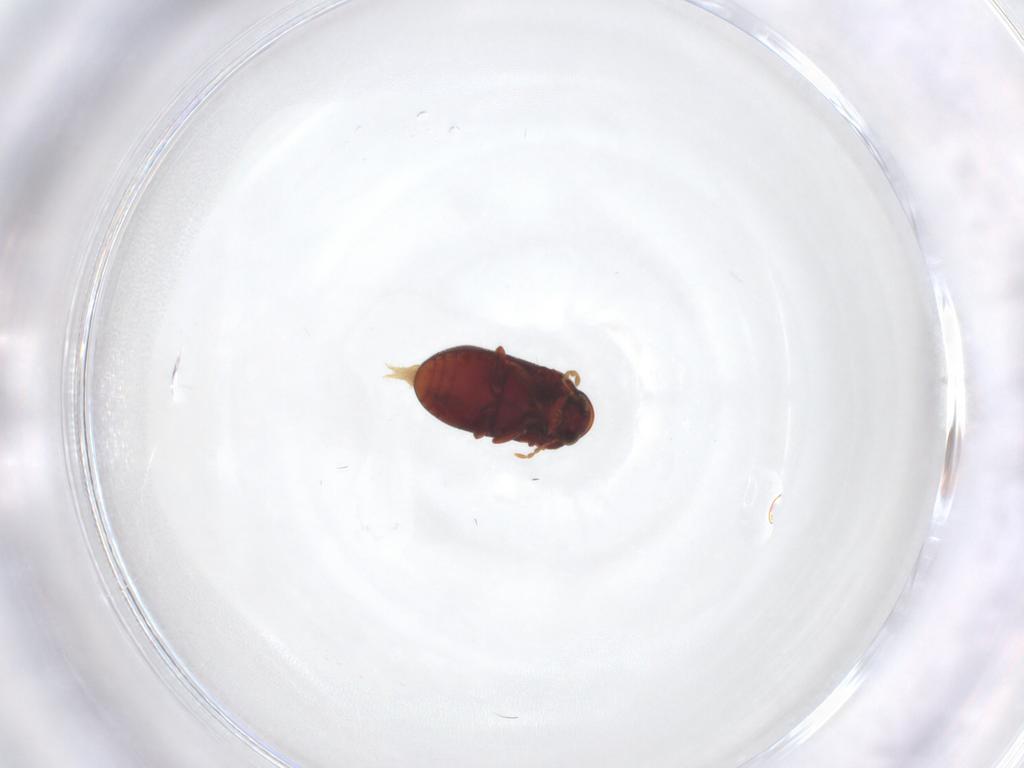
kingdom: Animalia
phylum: Arthropoda
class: Insecta
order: Coleoptera
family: Ptinidae
